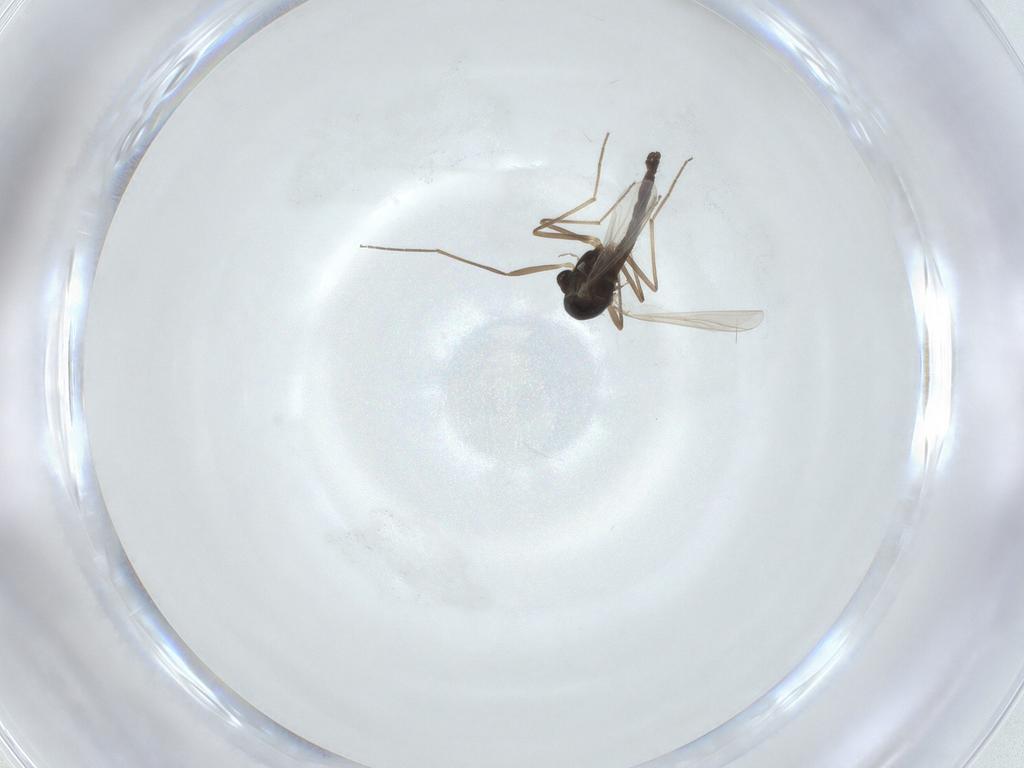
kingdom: Animalia
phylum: Arthropoda
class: Insecta
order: Diptera
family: Chironomidae
